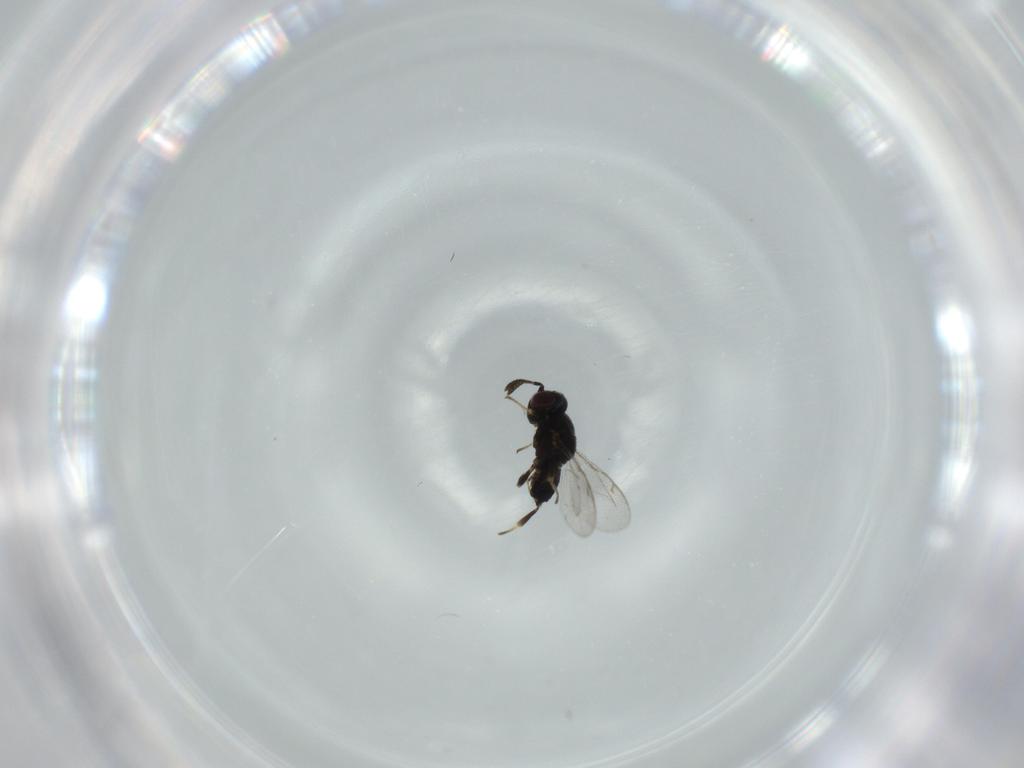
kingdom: Animalia
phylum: Arthropoda
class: Insecta
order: Hymenoptera
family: Eupelmidae
